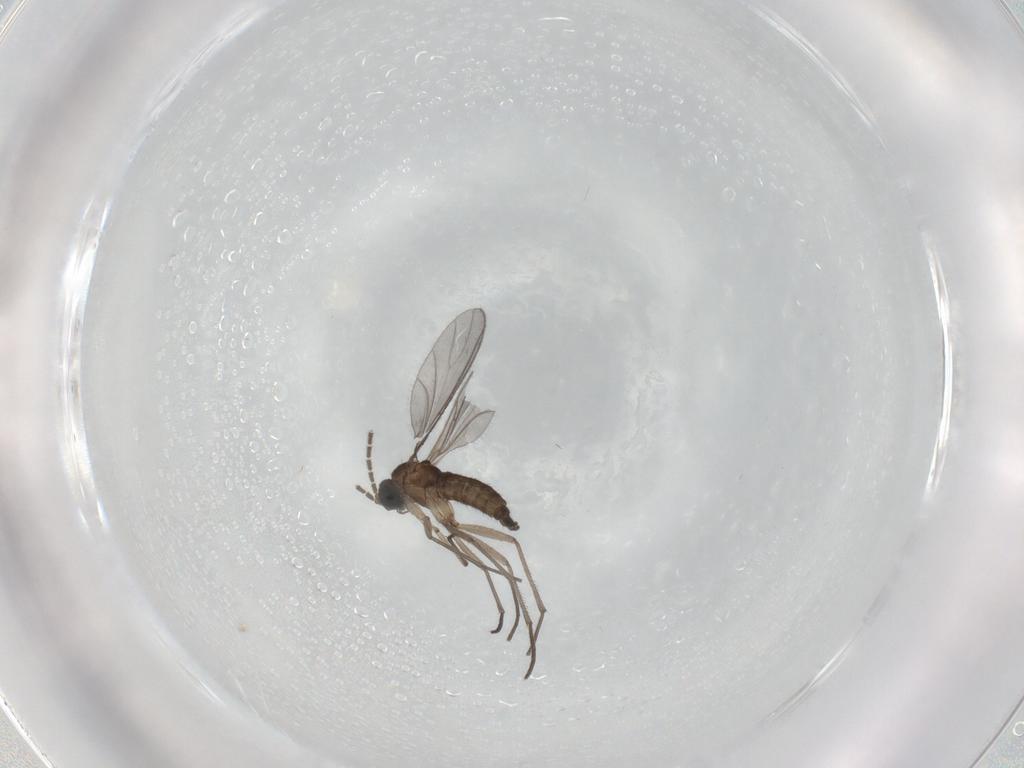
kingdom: Animalia
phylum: Arthropoda
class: Insecta
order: Diptera
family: Sciaridae
